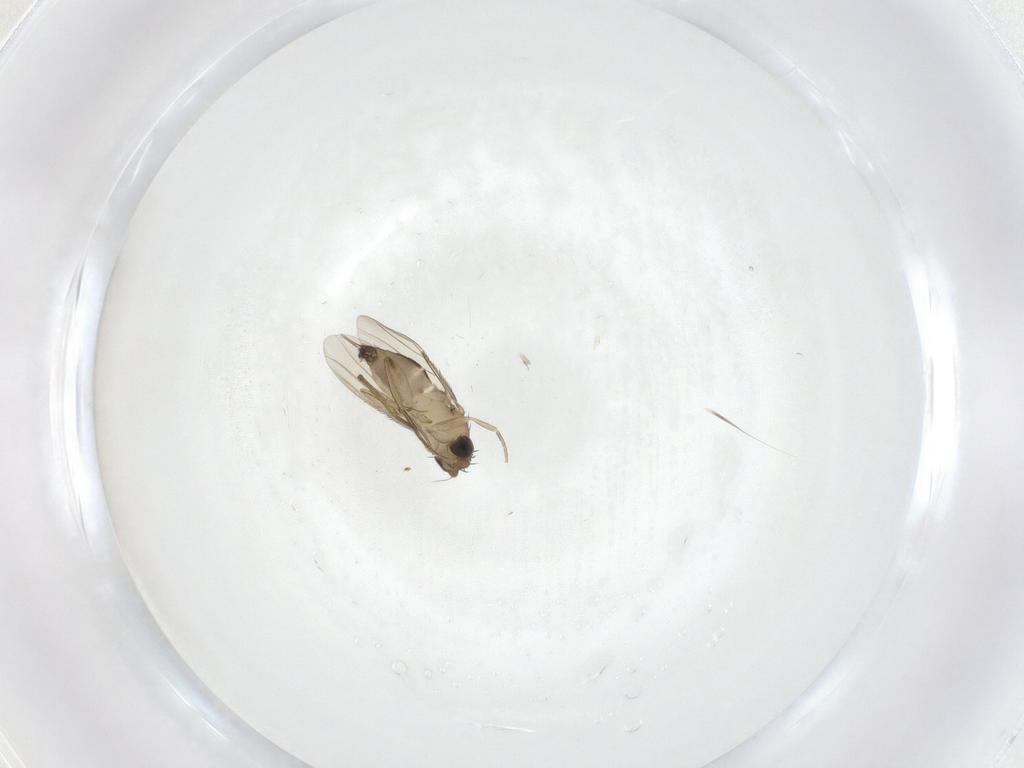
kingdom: Animalia
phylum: Arthropoda
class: Insecta
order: Diptera
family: Phoridae
